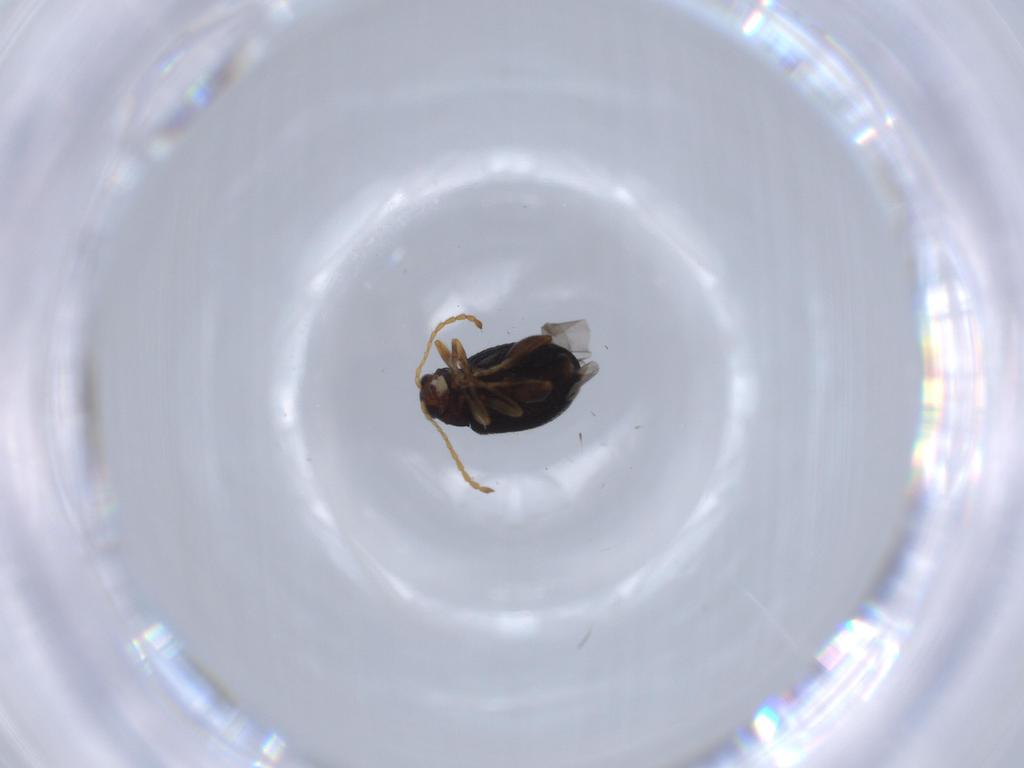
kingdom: Animalia
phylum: Arthropoda
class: Insecta
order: Coleoptera
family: Chrysomelidae
